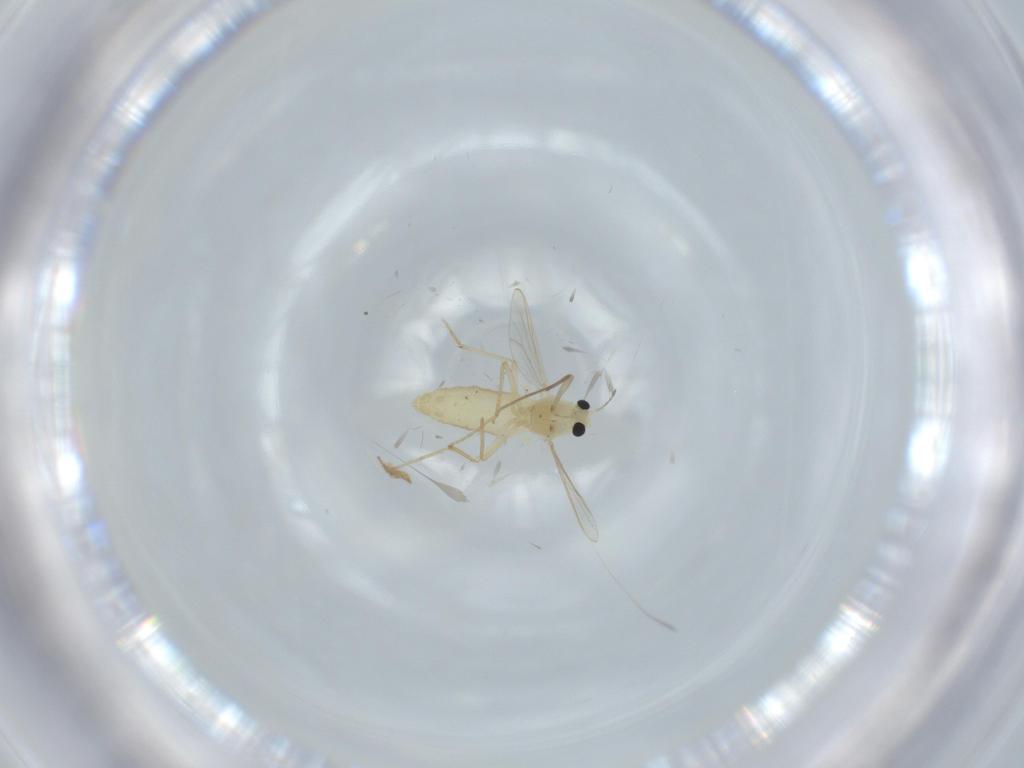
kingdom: Animalia
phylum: Arthropoda
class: Insecta
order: Diptera
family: Chironomidae
